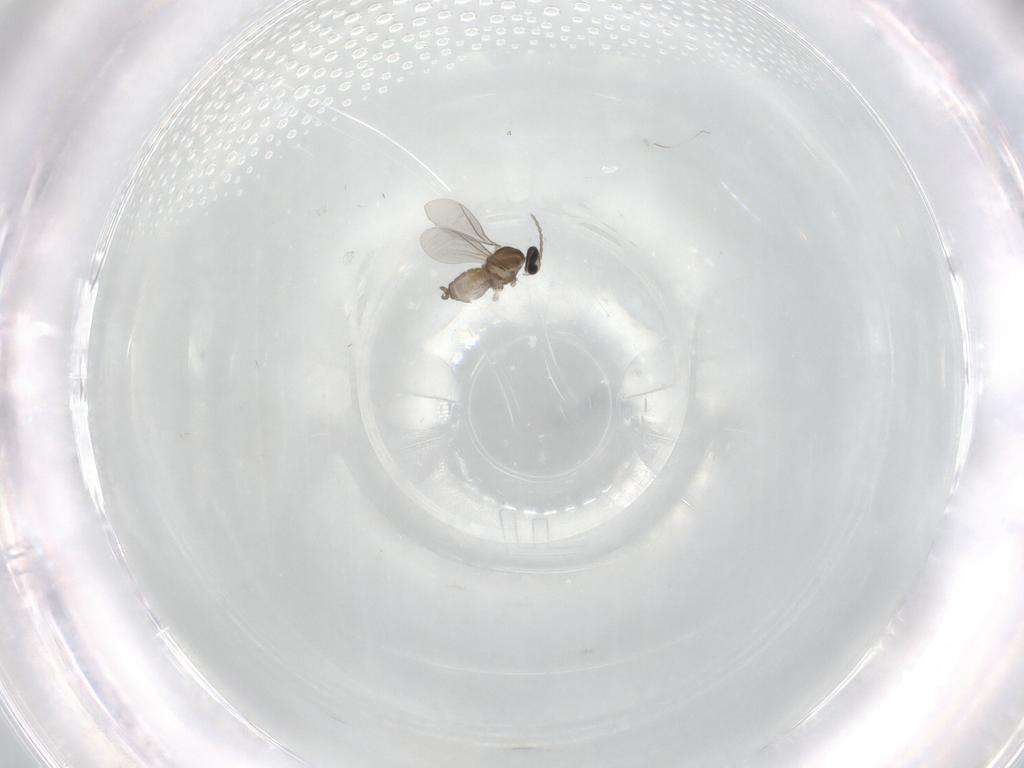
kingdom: Animalia
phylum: Arthropoda
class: Insecta
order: Diptera
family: Cecidomyiidae
